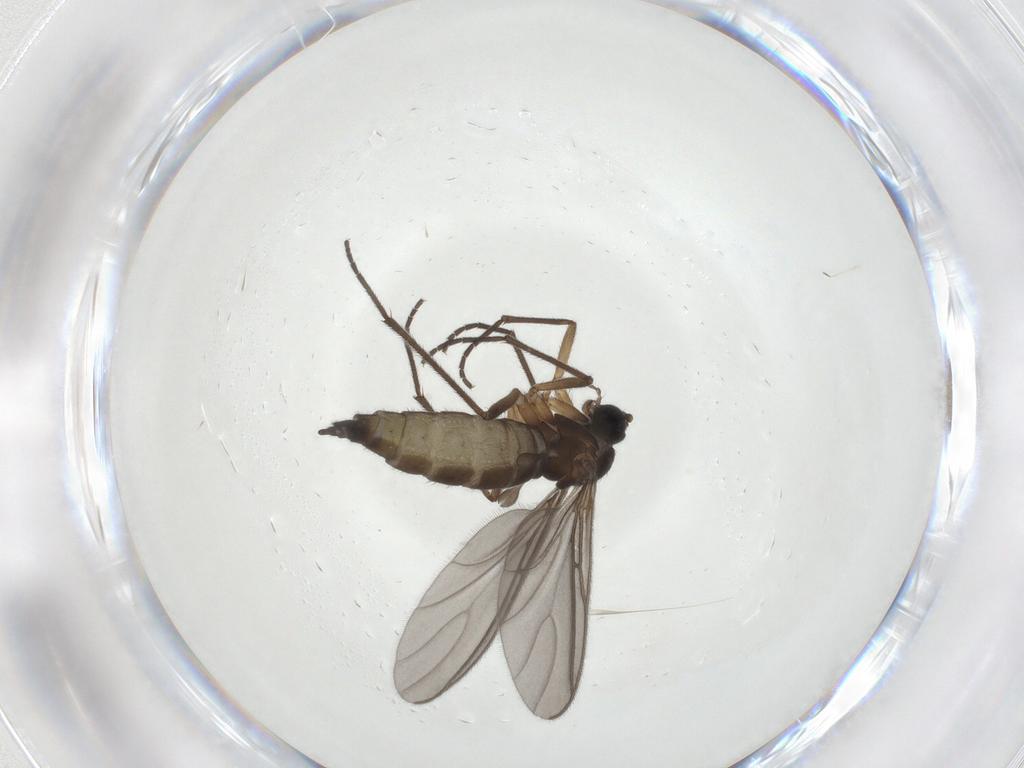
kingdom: Animalia
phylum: Arthropoda
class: Insecta
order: Diptera
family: Sciaridae
